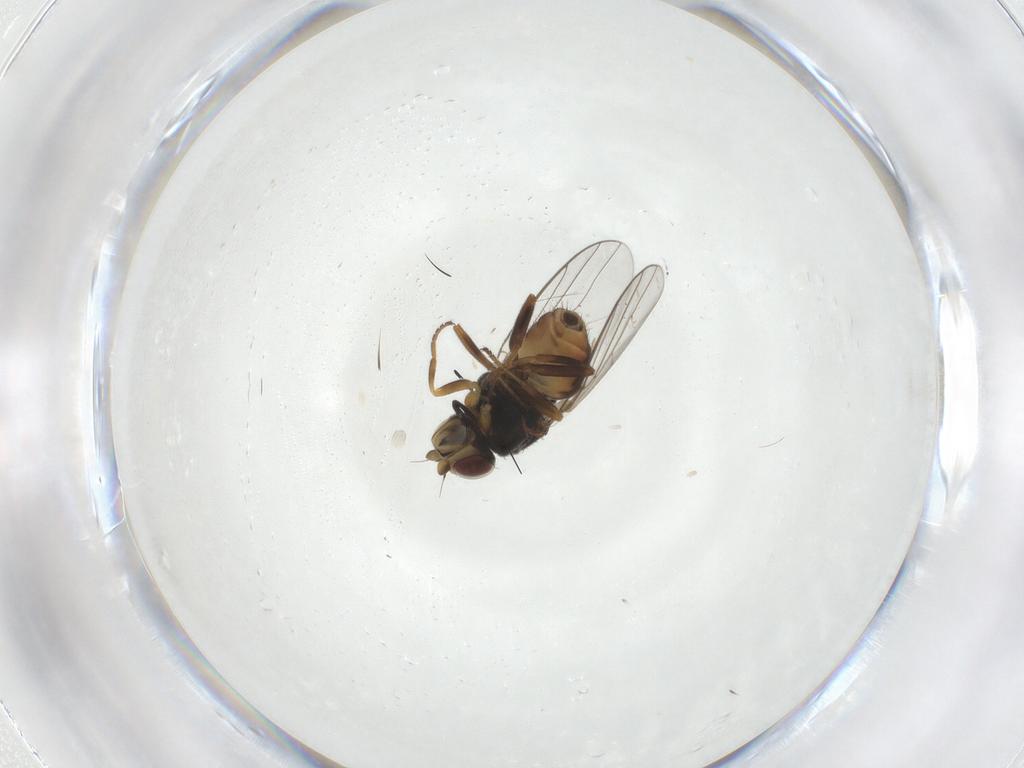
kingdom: Animalia
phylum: Arthropoda
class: Insecta
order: Diptera
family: Chloropidae
